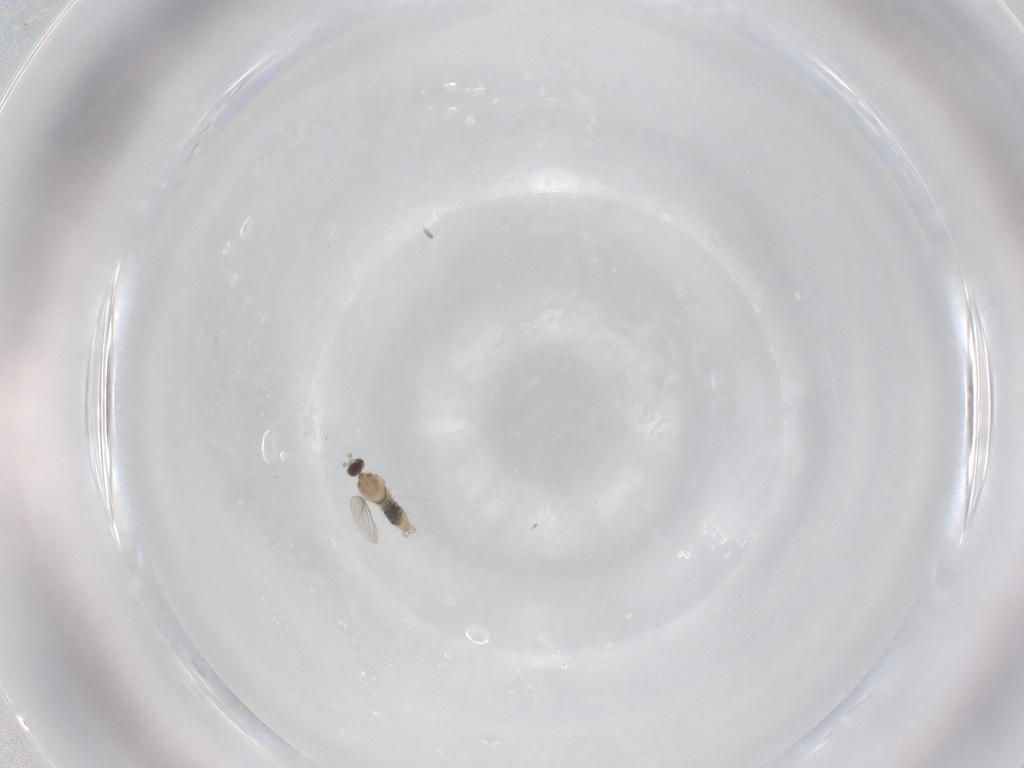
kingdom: Animalia
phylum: Arthropoda
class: Insecta
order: Diptera
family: Cecidomyiidae
